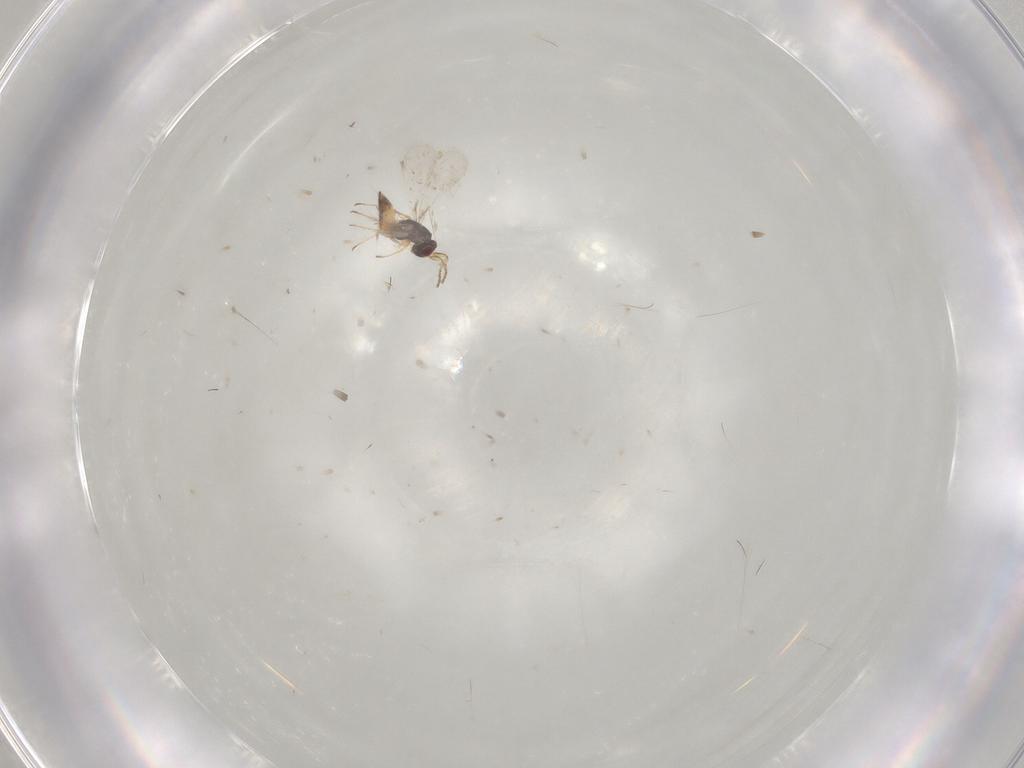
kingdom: Animalia
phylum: Arthropoda
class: Insecta
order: Hymenoptera
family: Mymaridae
